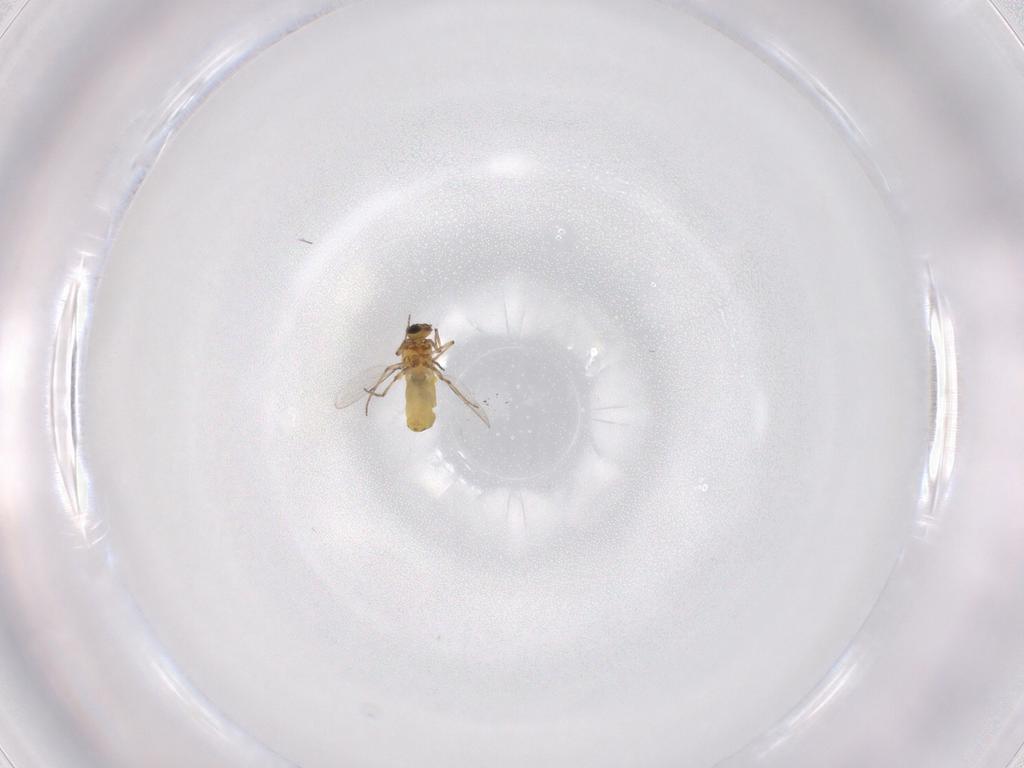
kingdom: Animalia
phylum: Arthropoda
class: Insecta
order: Diptera
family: Ceratopogonidae
